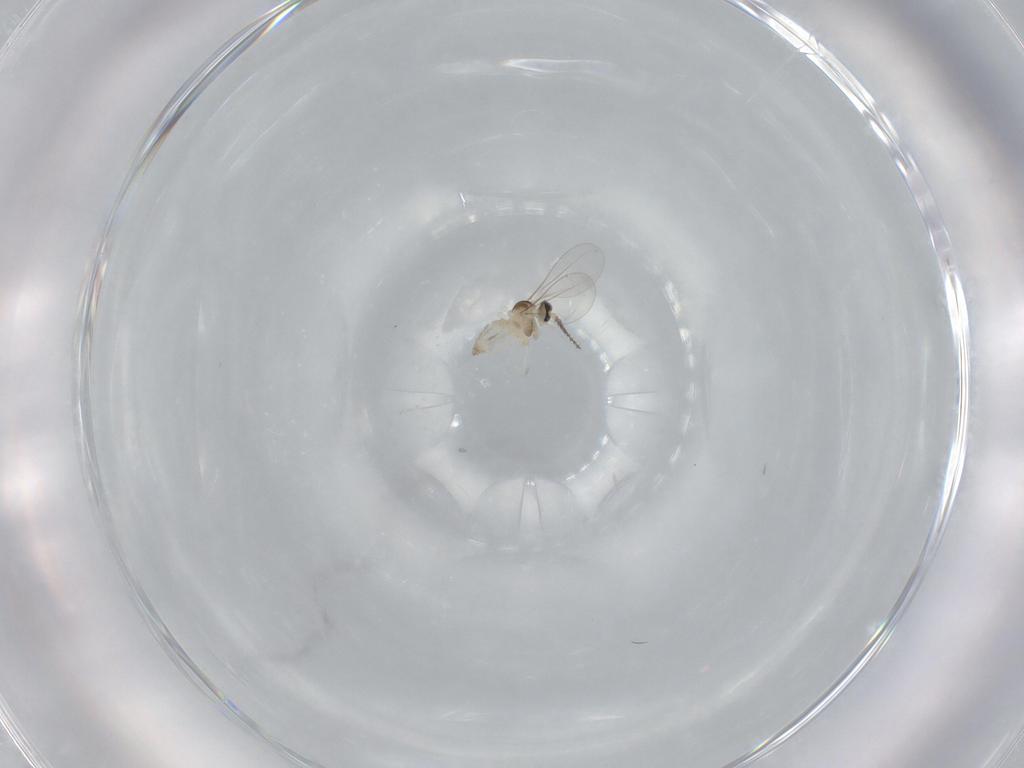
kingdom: Animalia
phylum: Arthropoda
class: Insecta
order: Diptera
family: Cecidomyiidae
